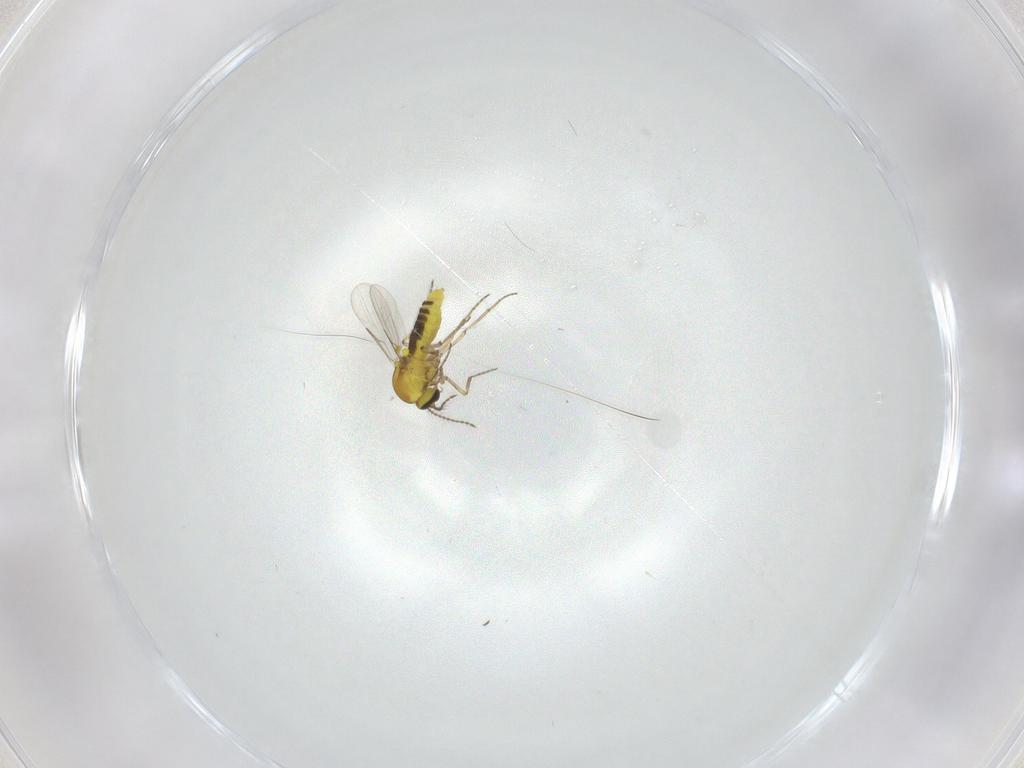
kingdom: Animalia
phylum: Arthropoda
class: Insecta
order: Diptera
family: Ceratopogonidae
